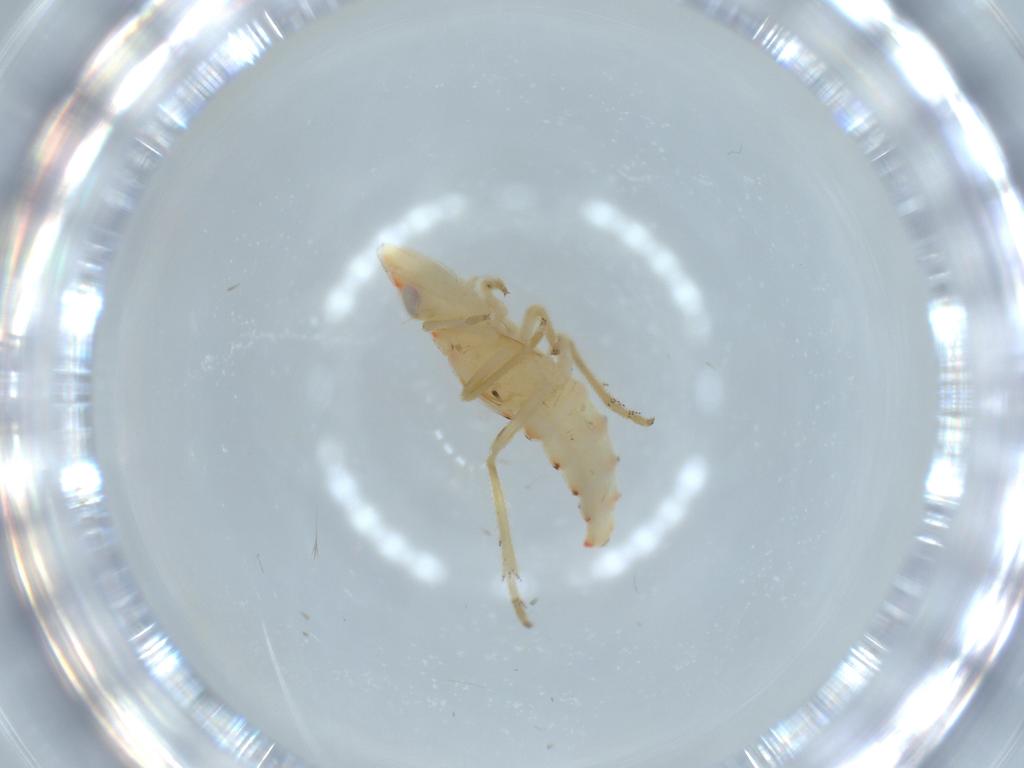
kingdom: Animalia
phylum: Arthropoda
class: Insecta
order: Hemiptera
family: Tropiduchidae
